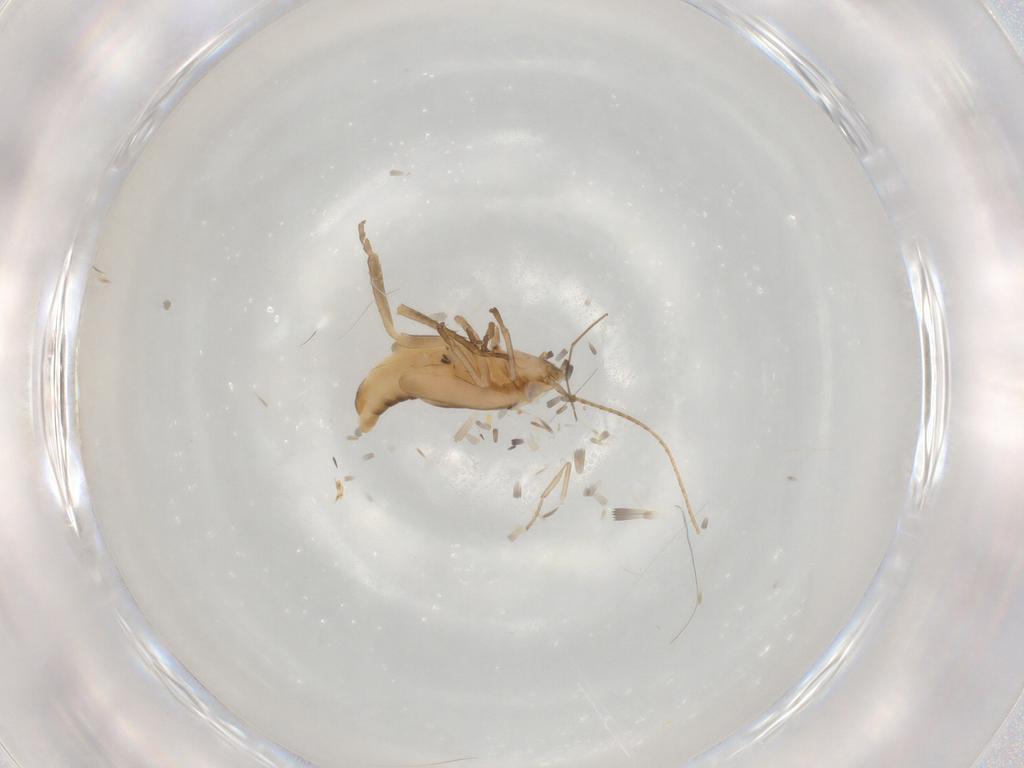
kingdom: Animalia
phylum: Arthropoda
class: Insecta
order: Hemiptera
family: Cicadellidae
